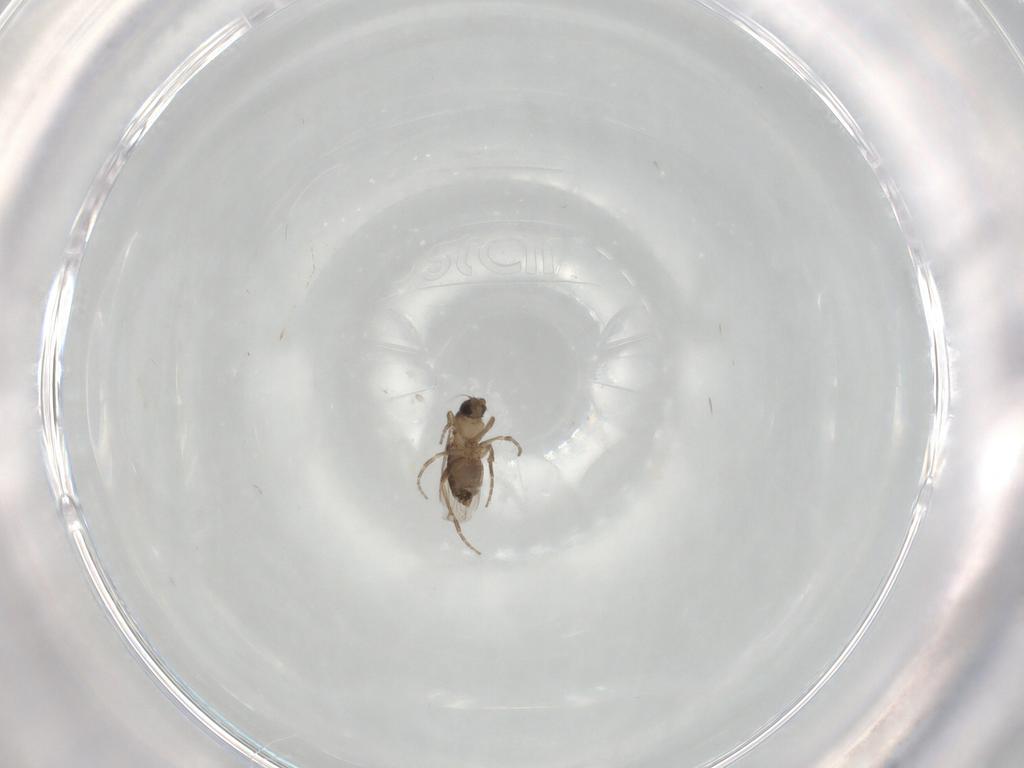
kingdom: Animalia
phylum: Arthropoda
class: Insecta
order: Diptera
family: Phoridae
